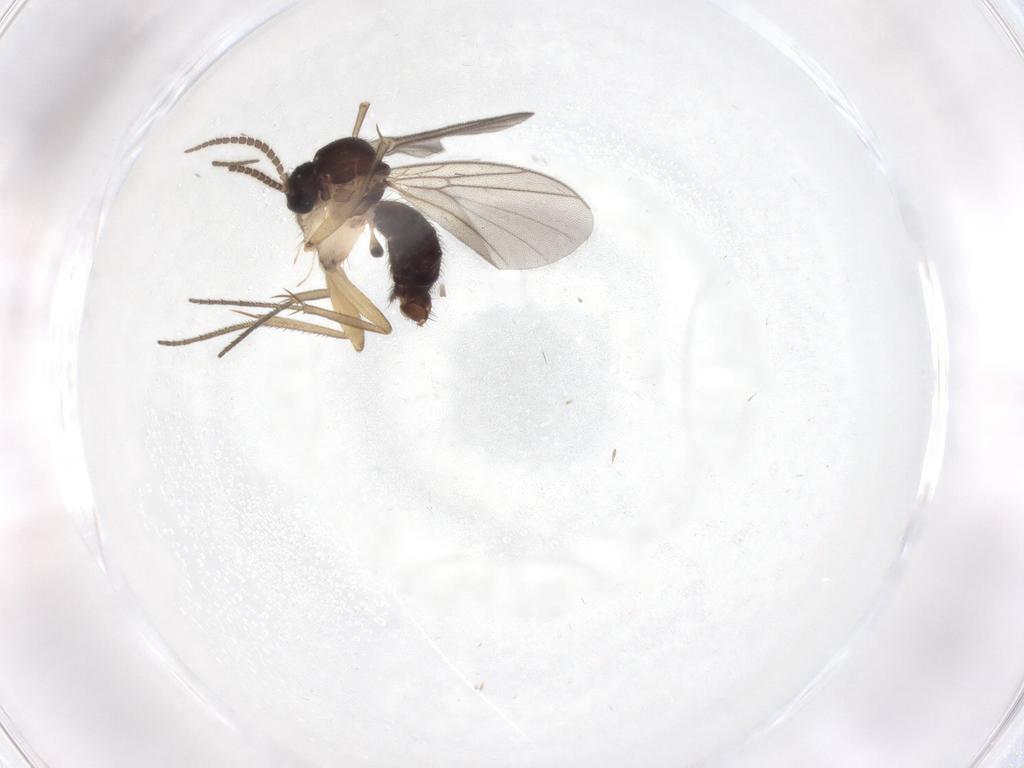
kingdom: Animalia
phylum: Arthropoda
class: Insecta
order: Diptera
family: Mycetophilidae
